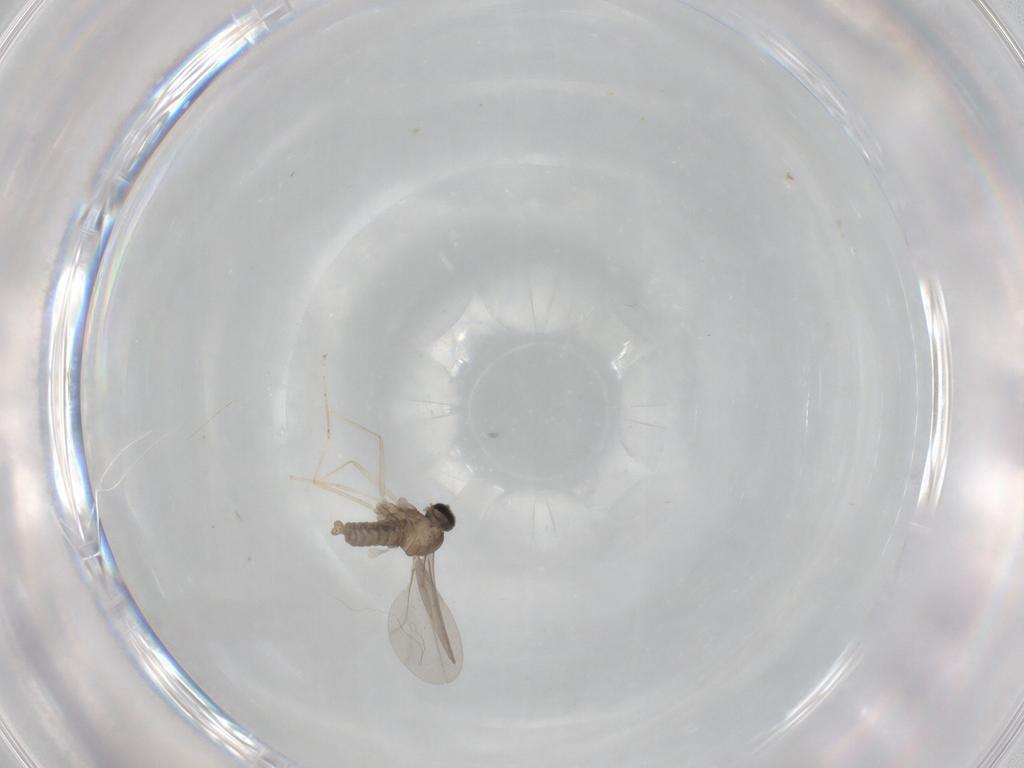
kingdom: Animalia
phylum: Arthropoda
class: Insecta
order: Diptera
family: Cecidomyiidae
